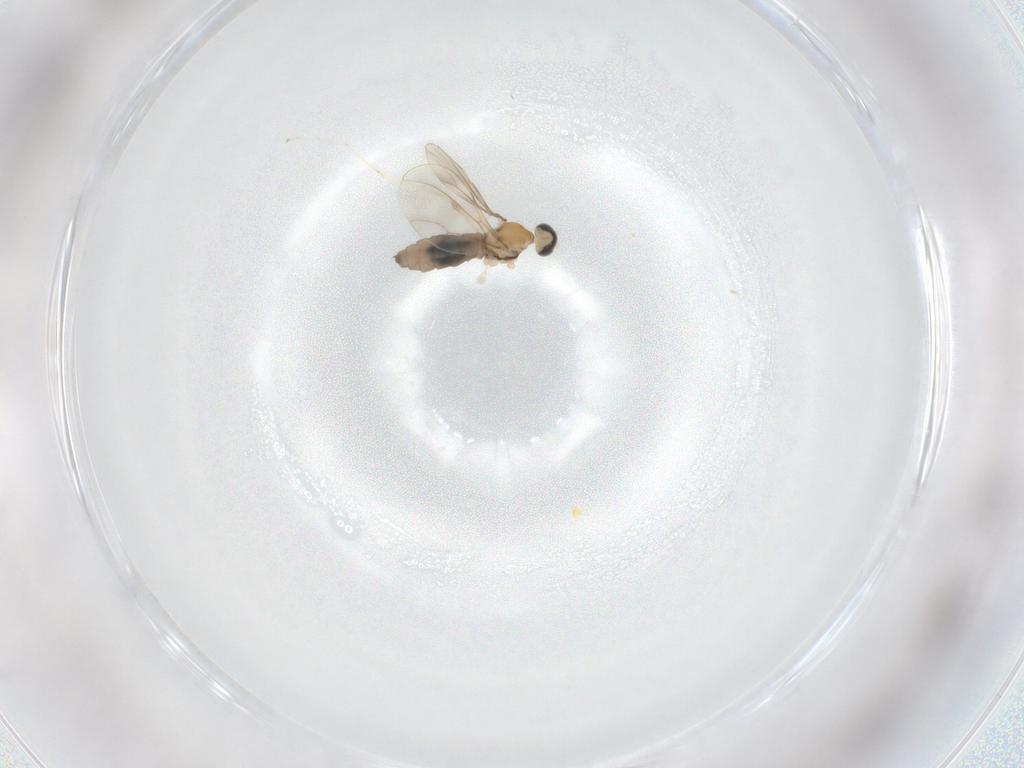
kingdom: Animalia
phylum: Arthropoda
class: Insecta
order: Diptera
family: Cecidomyiidae
